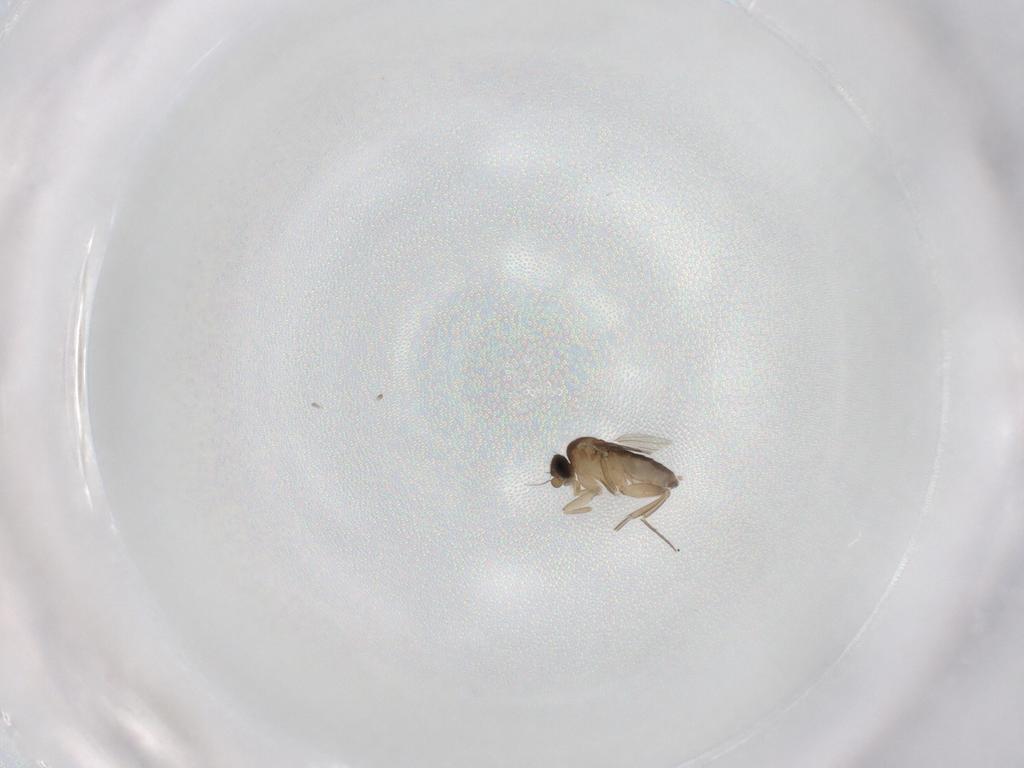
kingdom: Animalia
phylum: Arthropoda
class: Insecta
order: Diptera
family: Phoridae
